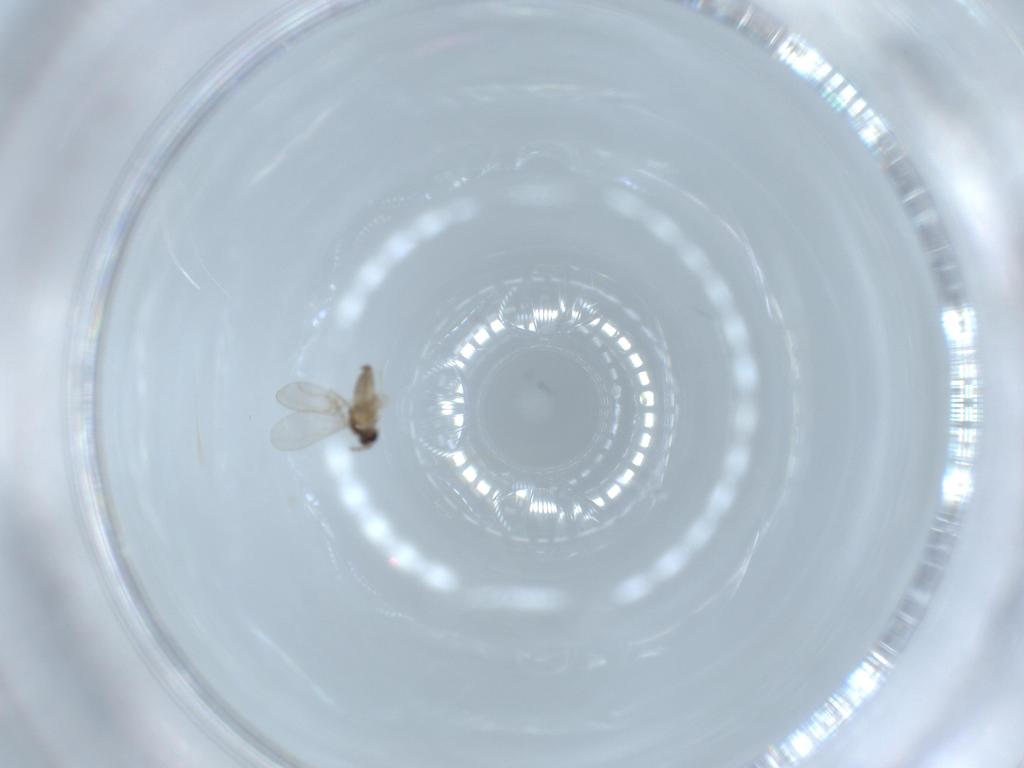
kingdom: Animalia
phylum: Arthropoda
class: Insecta
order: Diptera
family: Cecidomyiidae
